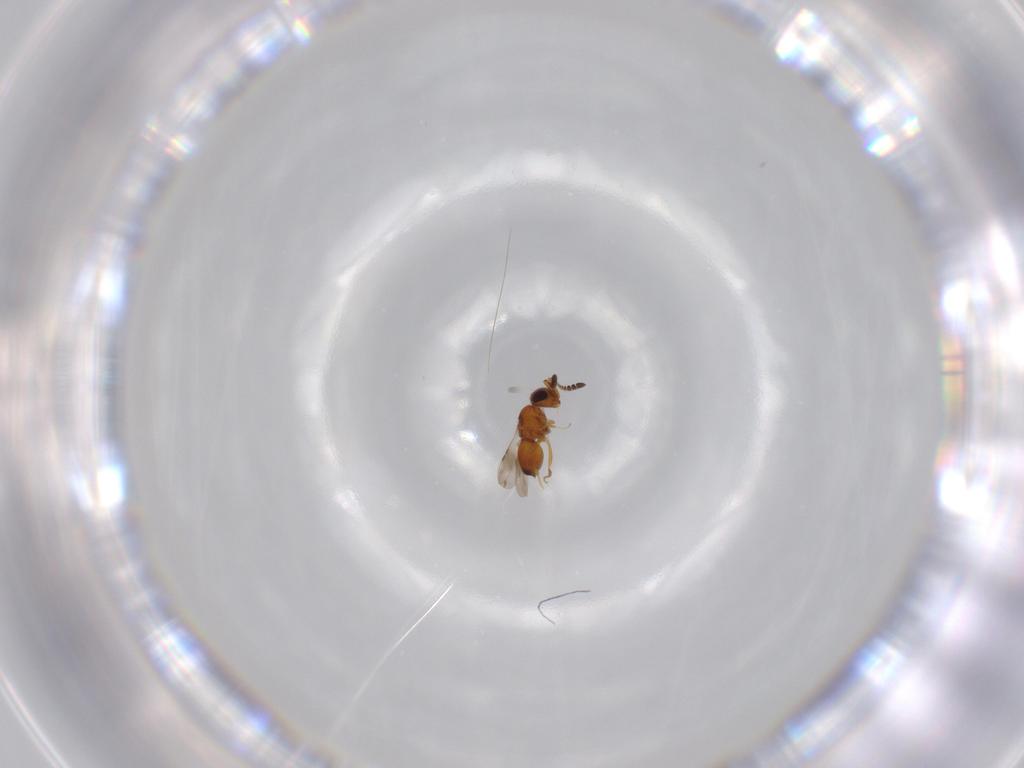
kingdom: Animalia
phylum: Arthropoda
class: Insecta
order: Hymenoptera
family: Ceraphronidae
